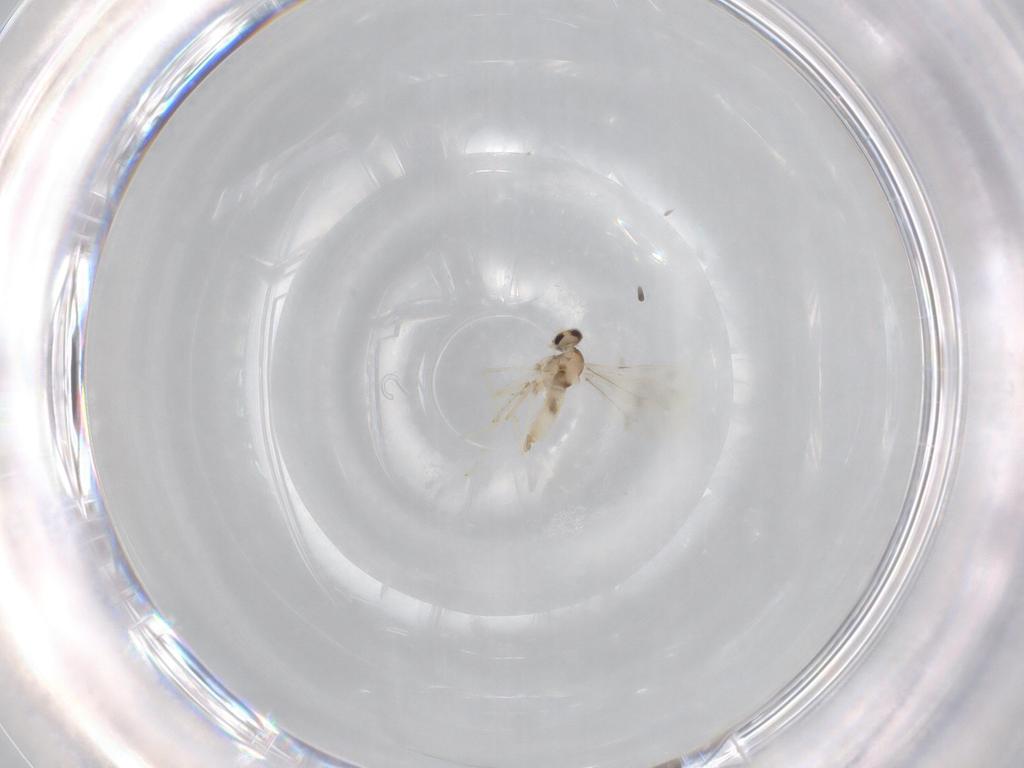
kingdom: Animalia
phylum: Arthropoda
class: Insecta
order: Diptera
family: Cecidomyiidae
